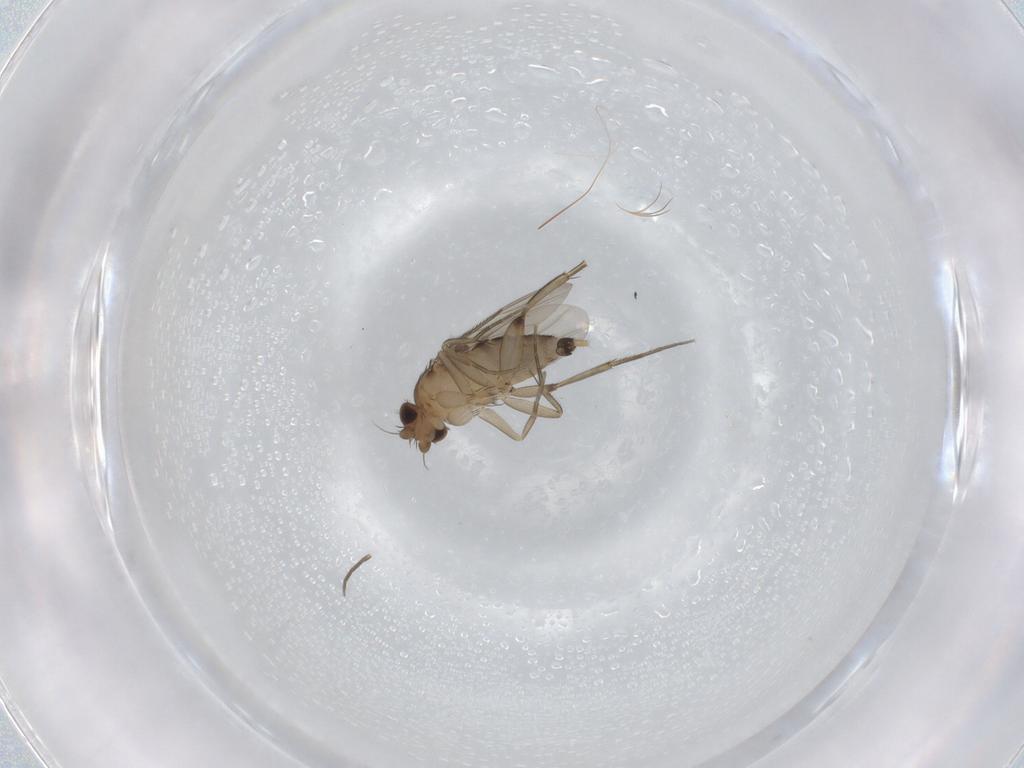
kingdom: Animalia
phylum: Arthropoda
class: Insecta
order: Diptera
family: Phoridae
